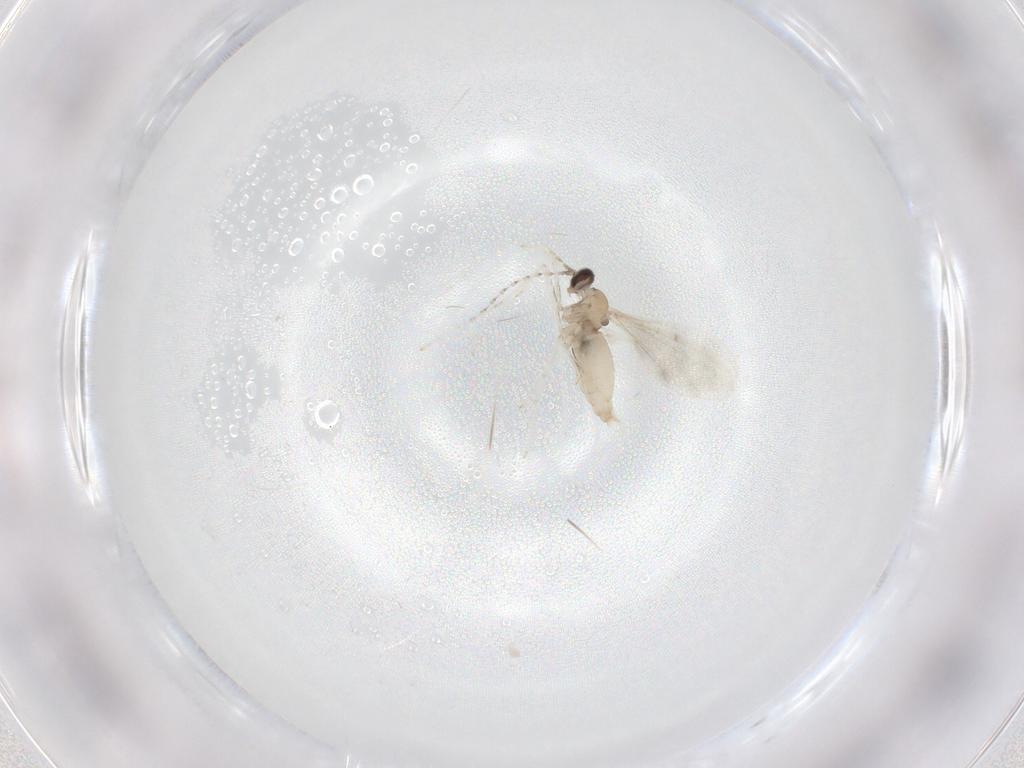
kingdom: Animalia
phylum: Arthropoda
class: Insecta
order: Diptera
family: Cecidomyiidae
